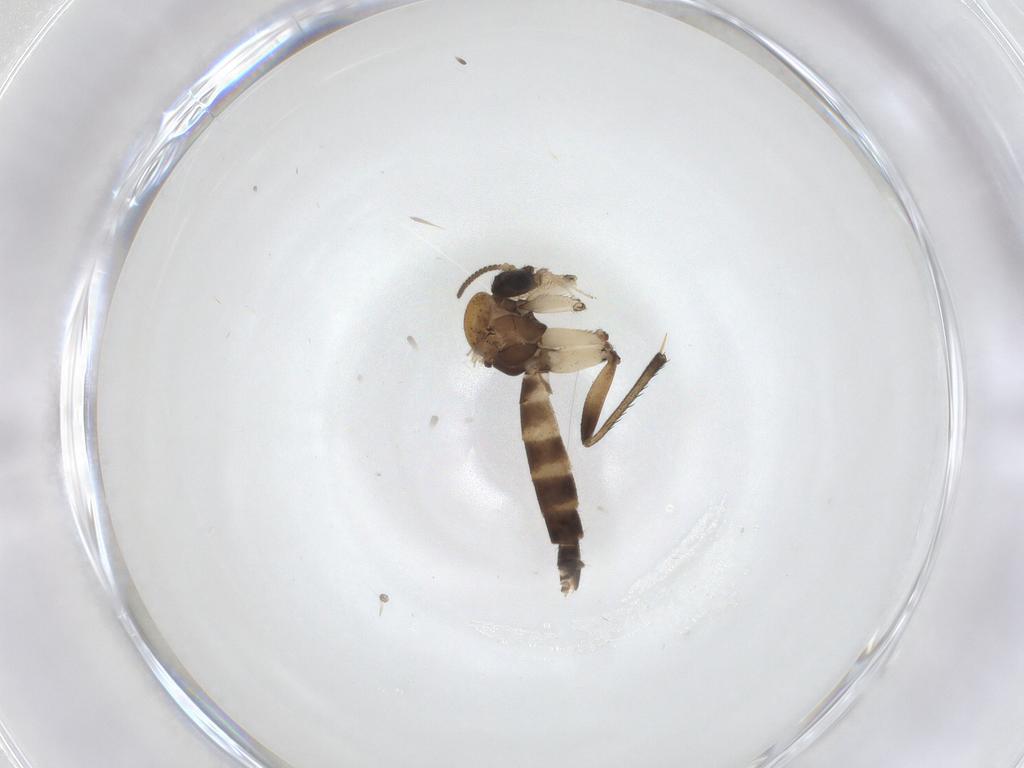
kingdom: Animalia
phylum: Arthropoda
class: Insecta
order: Diptera
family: Mycetophilidae
